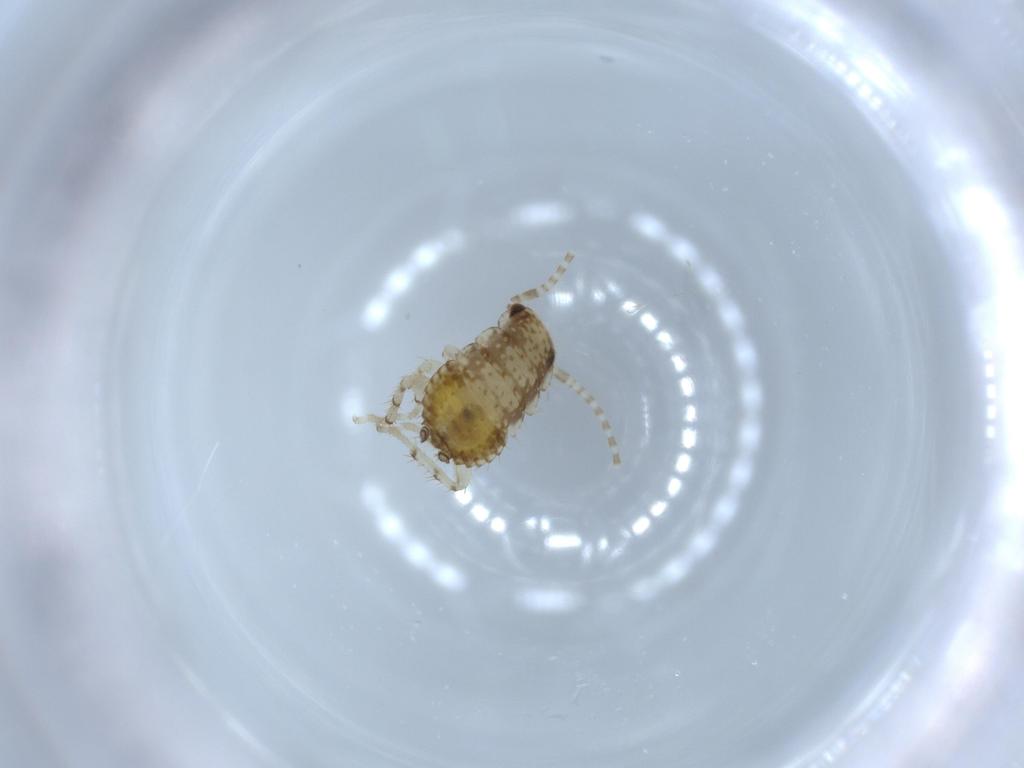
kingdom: Animalia
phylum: Arthropoda
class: Insecta
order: Blattodea
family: Ectobiidae
